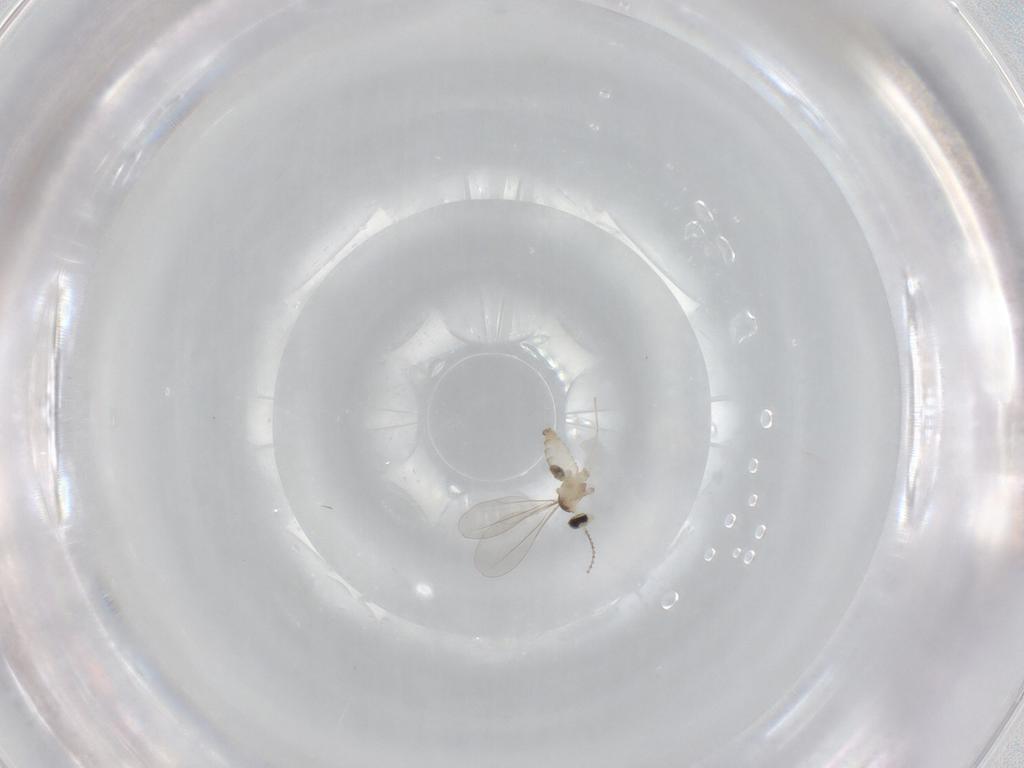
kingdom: Animalia
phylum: Arthropoda
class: Insecta
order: Diptera
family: Cecidomyiidae
